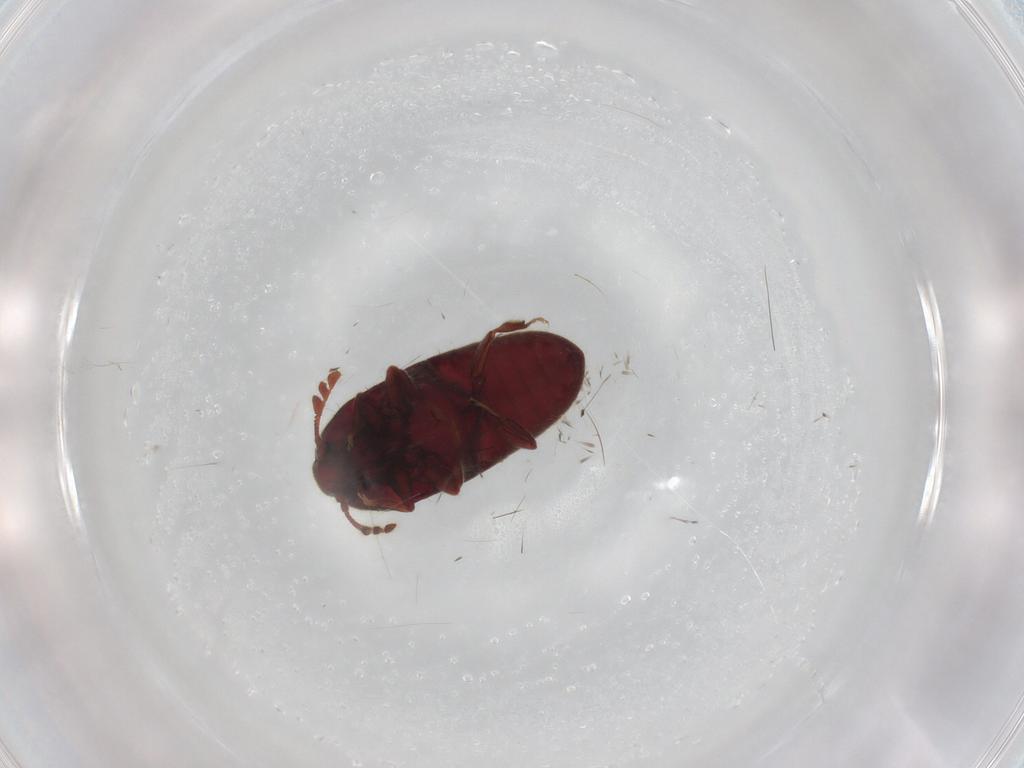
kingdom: Animalia
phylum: Arthropoda
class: Insecta
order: Coleoptera
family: Throscidae
